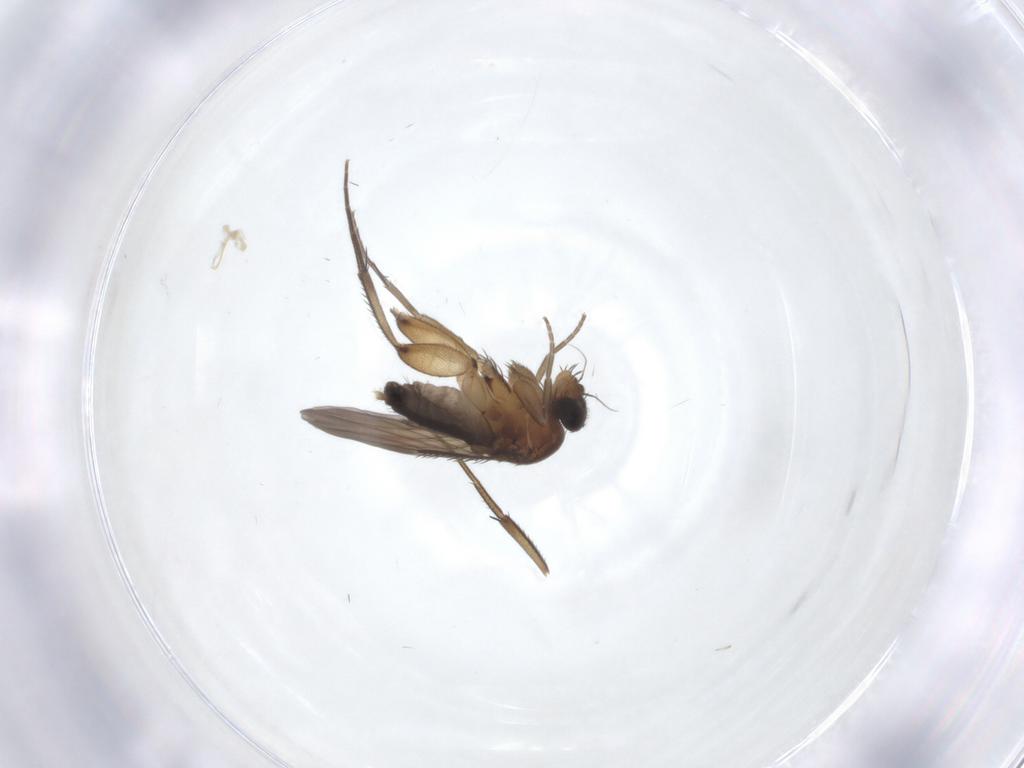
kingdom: Animalia
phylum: Arthropoda
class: Insecta
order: Diptera
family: Phoridae
